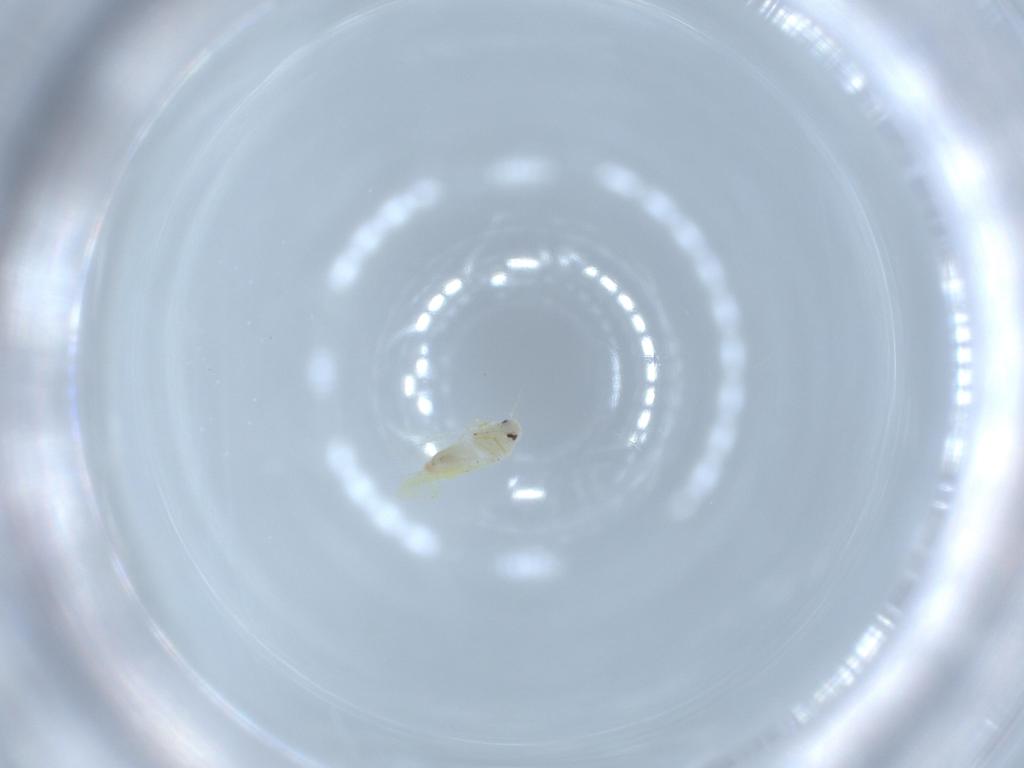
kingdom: Animalia
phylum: Arthropoda
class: Insecta
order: Hemiptera
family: Aleyrodidae
